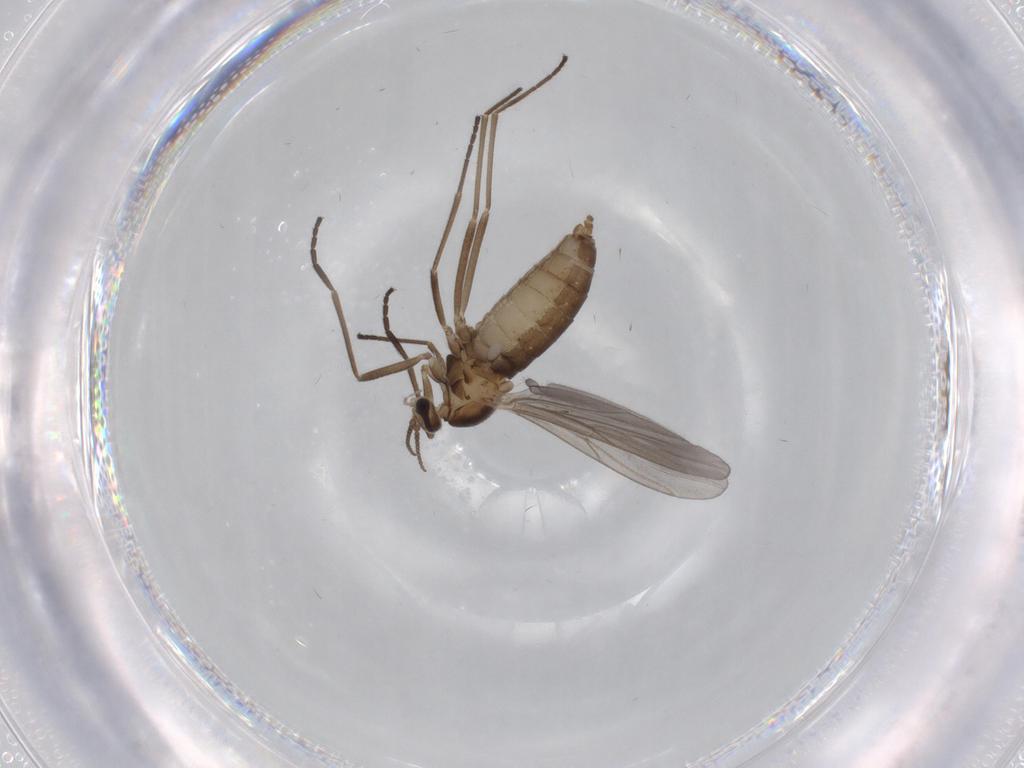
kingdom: Animalia
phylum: Arthropoda
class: Insecta
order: Diptera
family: Cecidomyiidae
